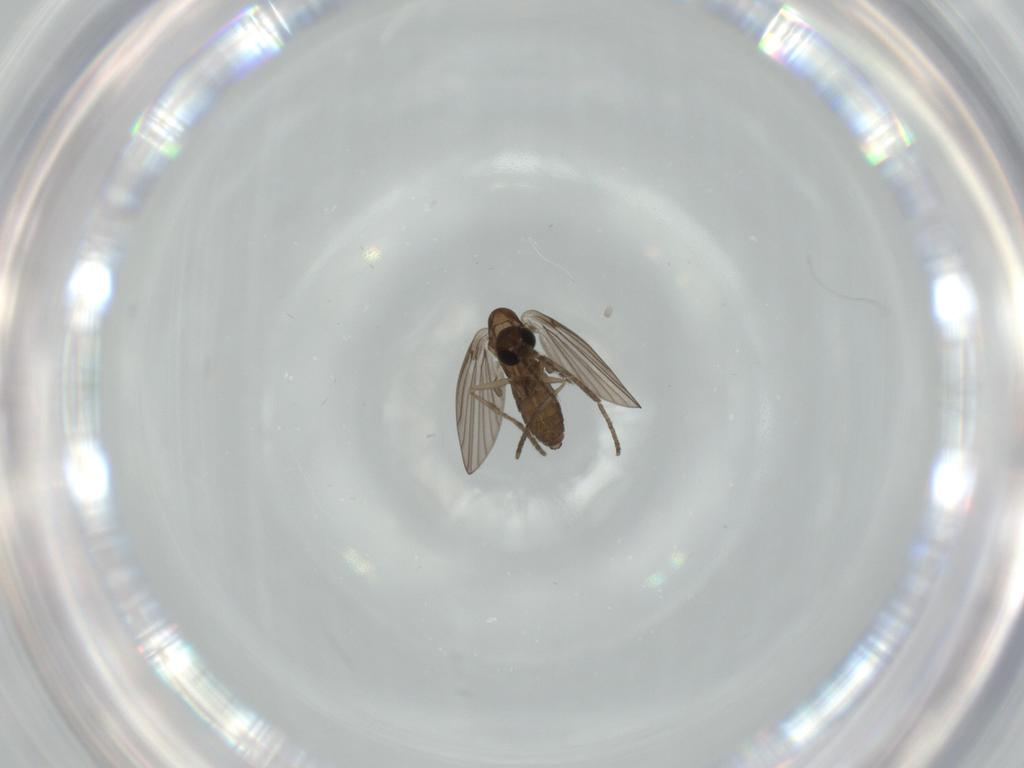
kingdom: Animalia
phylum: Arthropoda
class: Insecta
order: Diptera
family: Psychodidae
